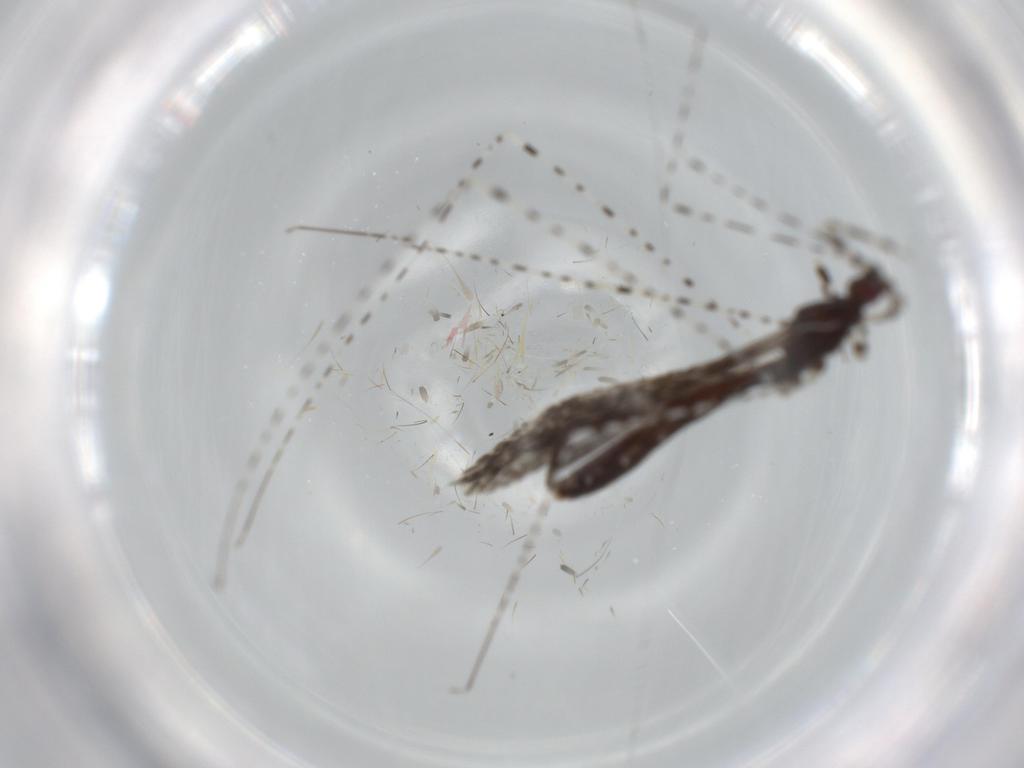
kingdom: Animalia
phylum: Arthropoda
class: Insecta
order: Hemiptera
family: Reduviidae
